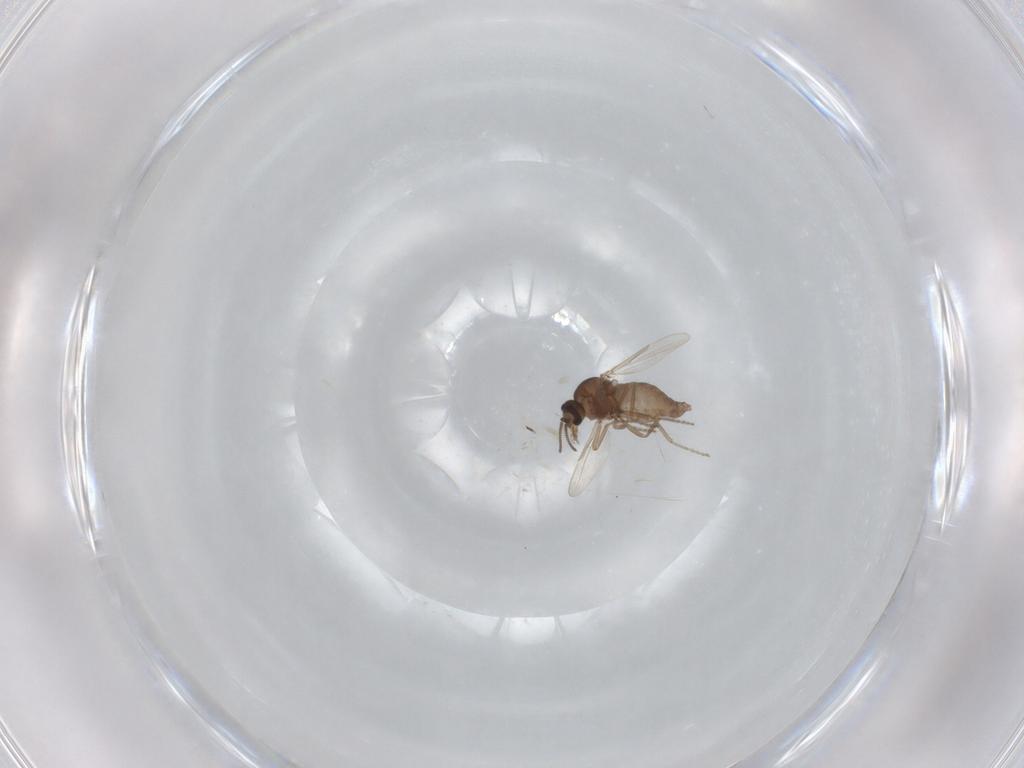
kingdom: Animalia
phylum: Arthropoda
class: Insecta
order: Diptera
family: Ceratopogonidae
